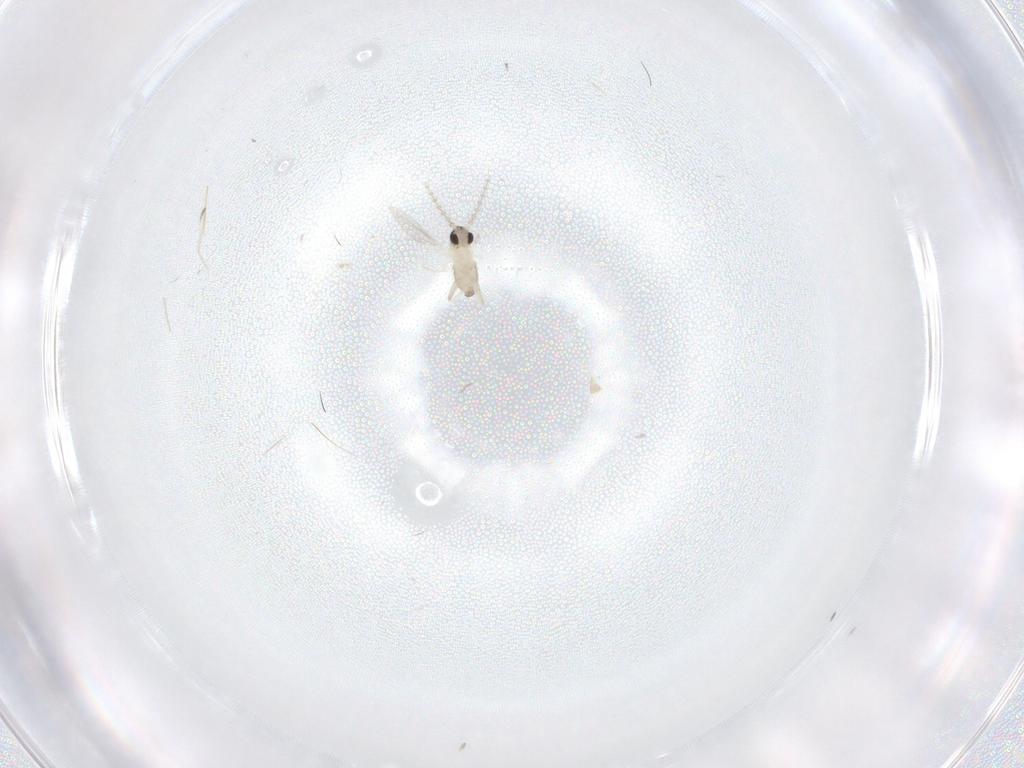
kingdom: Animalia
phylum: Arthropoda
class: Insecta
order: Diptera
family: Cecidomyiidae
